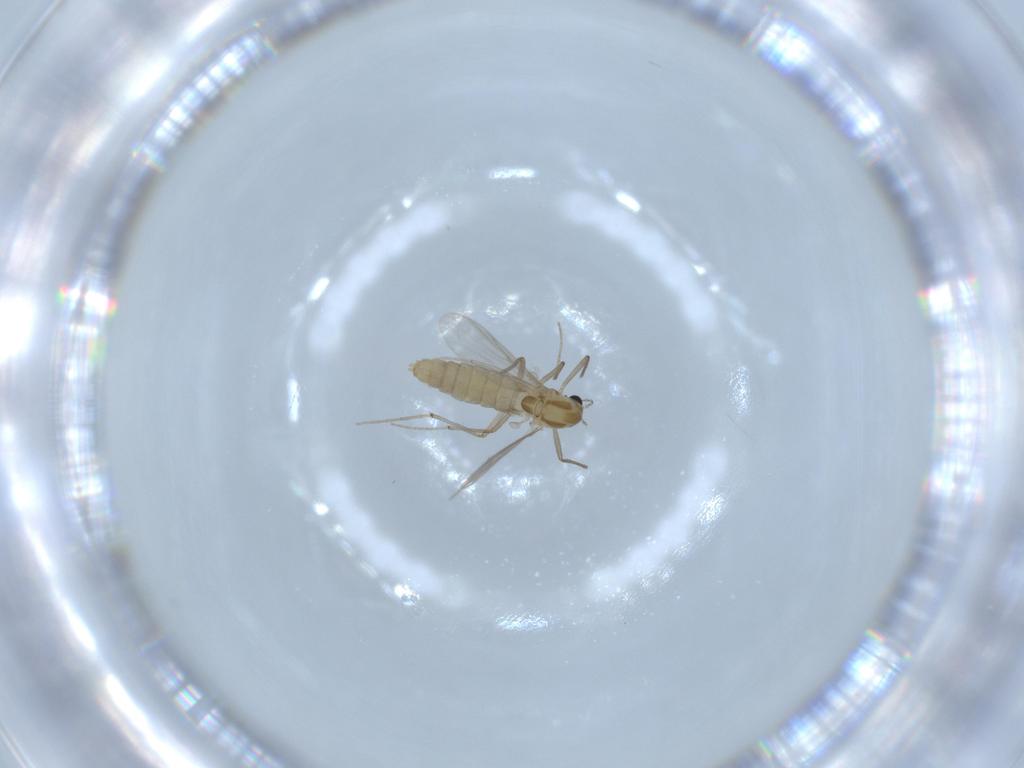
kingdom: Animalia
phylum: Arthropoda
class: Insecta
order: Diptera
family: Chironomidae
